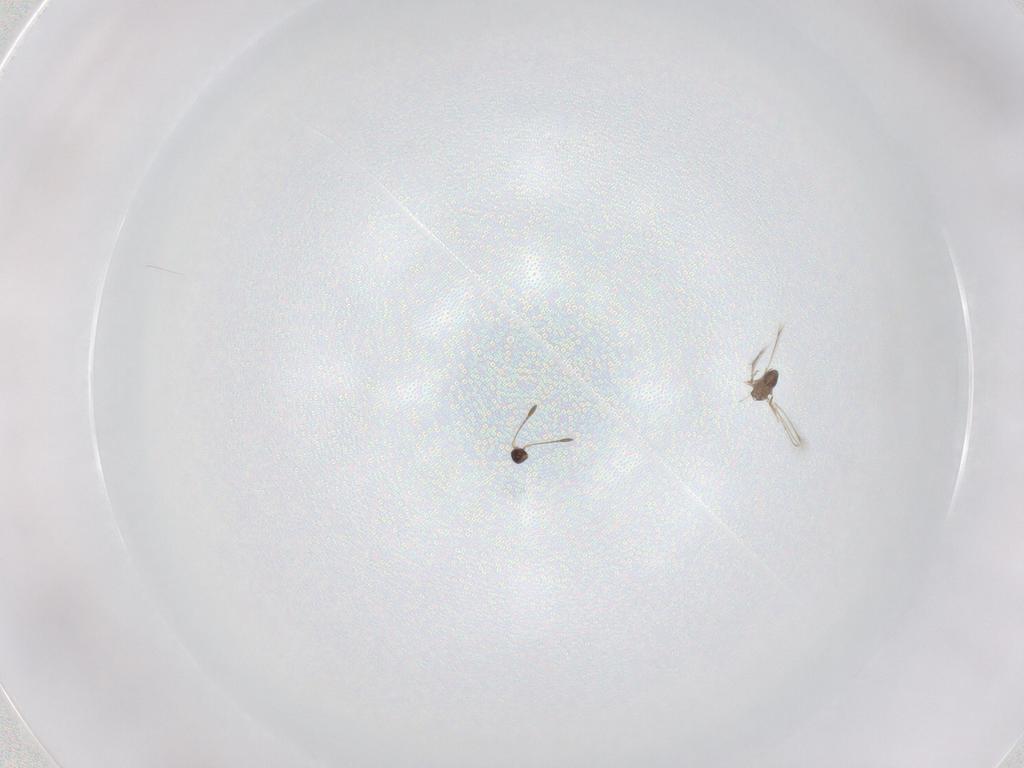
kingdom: Animalia
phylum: Arthropoda
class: Insecta
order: Hymenoptera
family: Mymaridae
